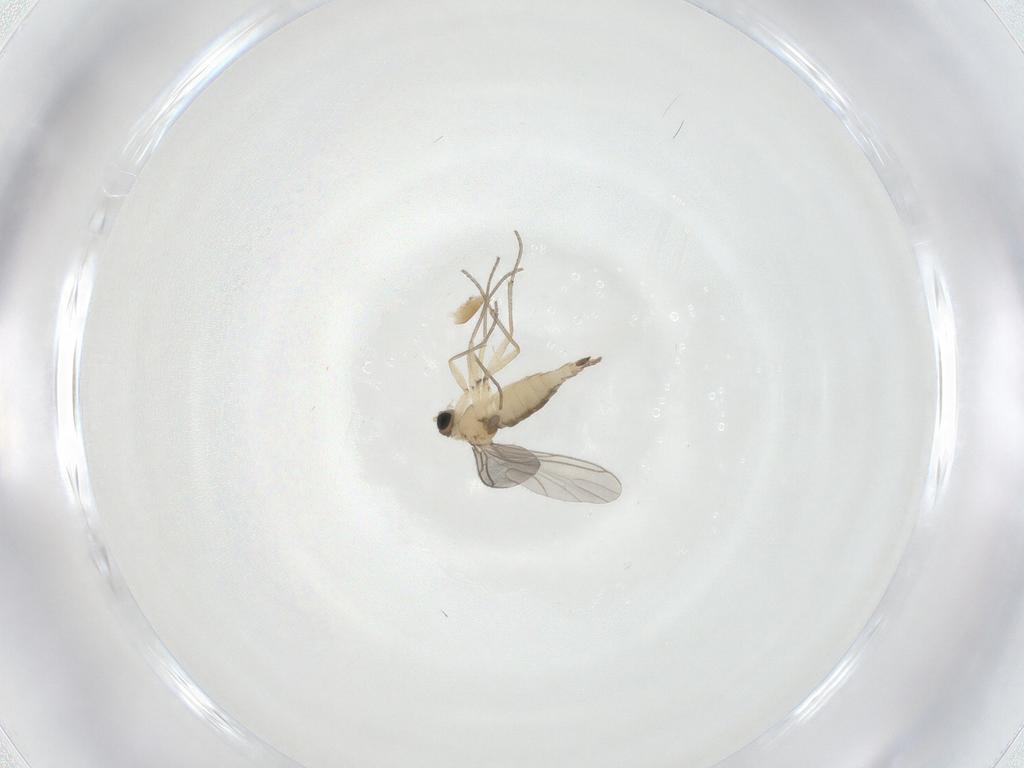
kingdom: Animalia
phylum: Arthropoda
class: Insecta
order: Diptera
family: Sciaridae
